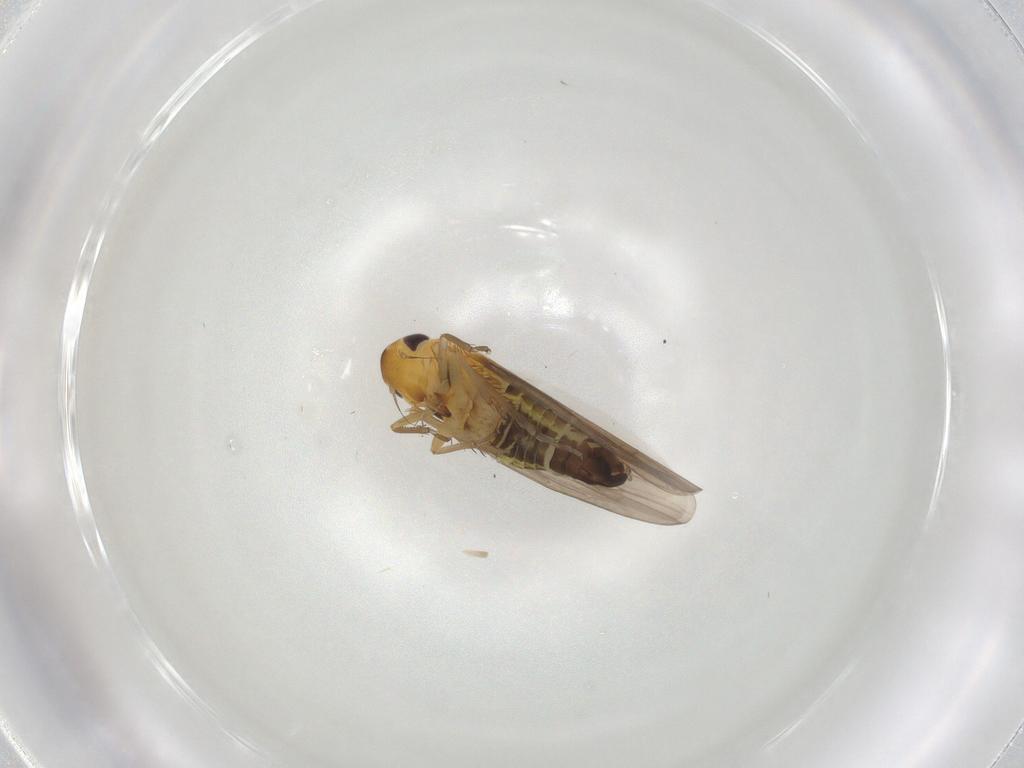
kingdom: Animalia
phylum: Arthropoda
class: Insecta
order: Hemiptera
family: Cicadellidae
